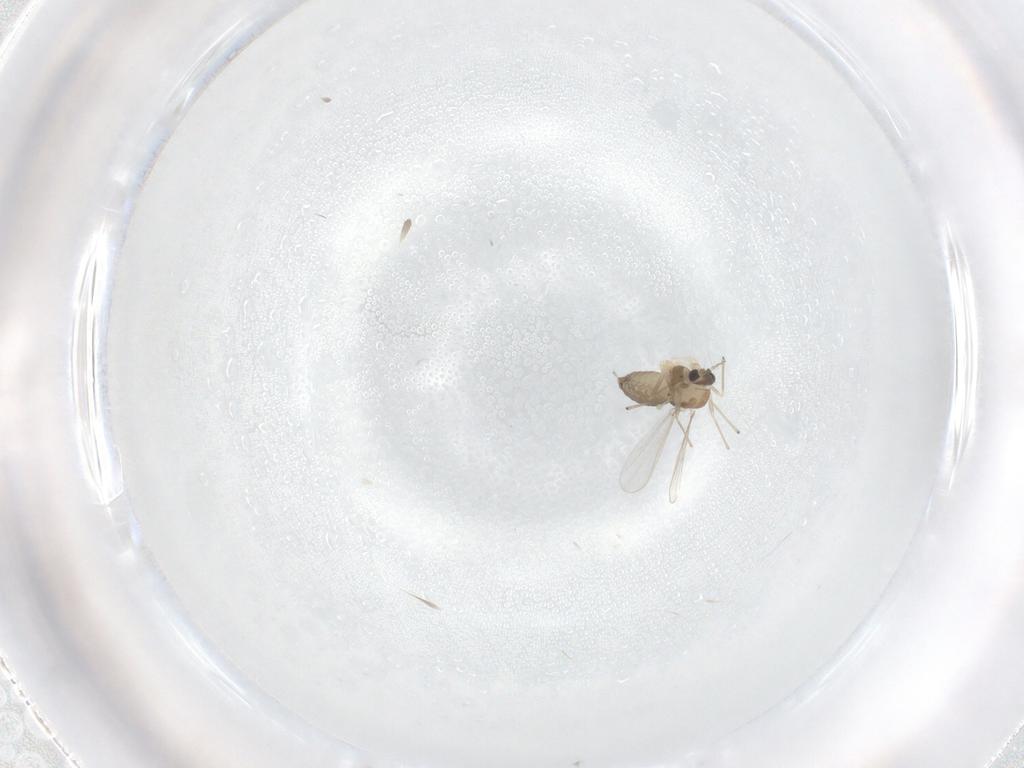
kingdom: Animalia
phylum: Arthropoda
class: Insecta
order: Diptera
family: Chironomidae
